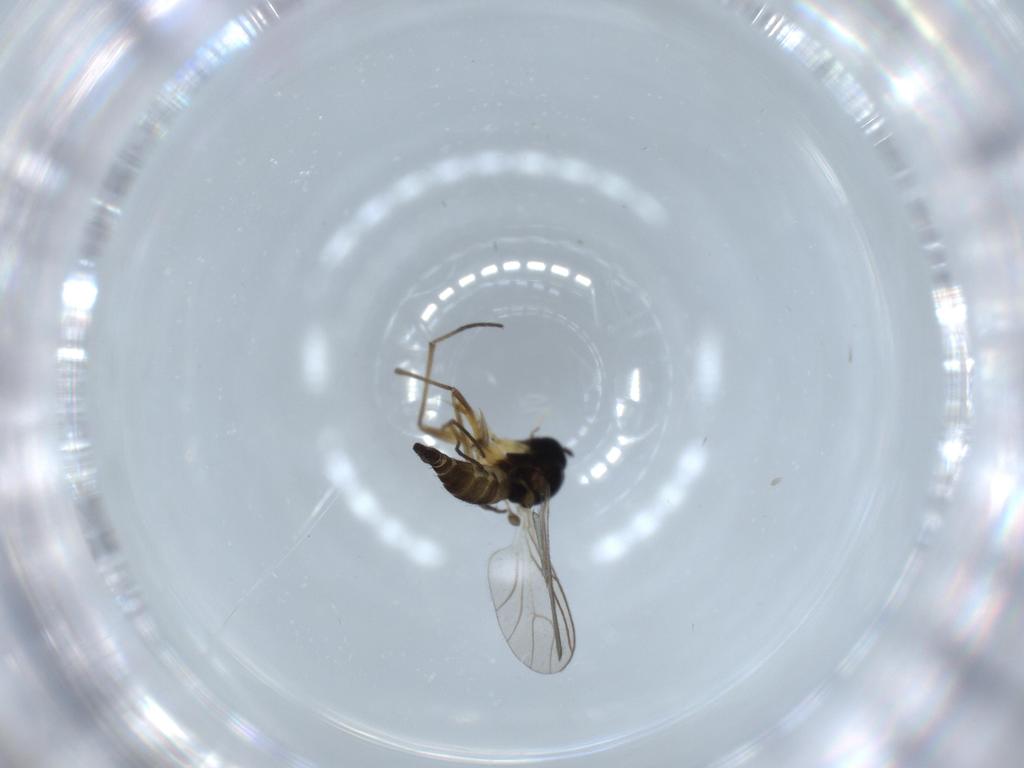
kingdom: Animalia
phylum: Arthropoda
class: Insecta
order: Diptera
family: Sciaridae
